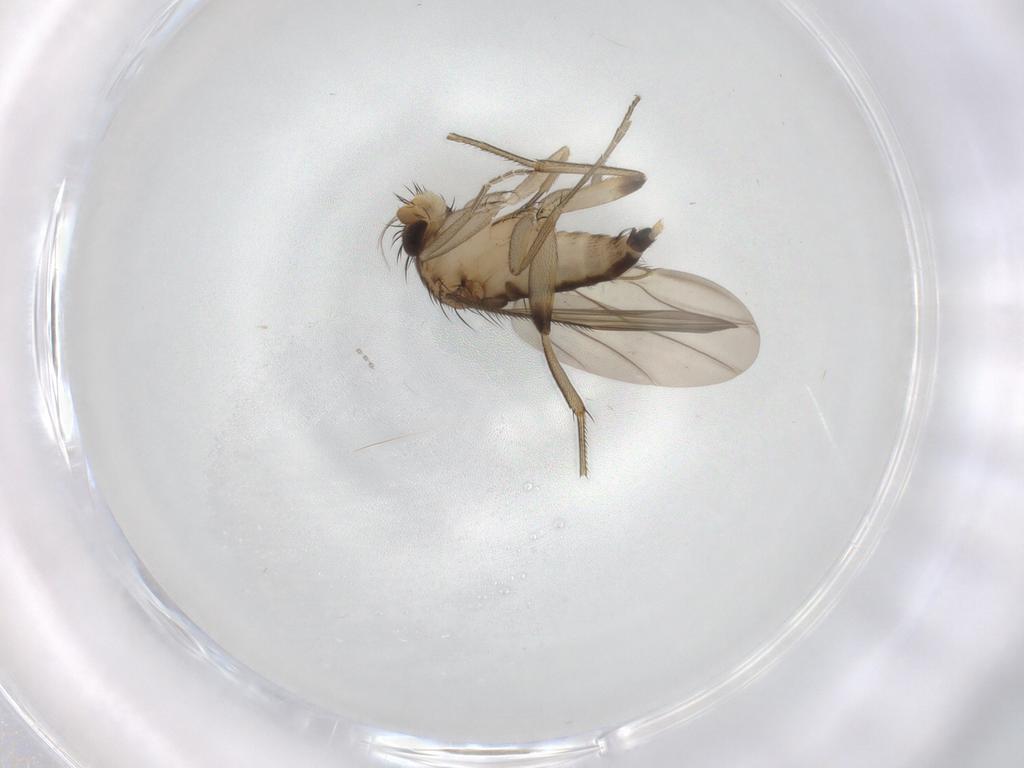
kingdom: Animalia
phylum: Arthropoda
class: Insecta
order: Diptera
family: Phoridae
